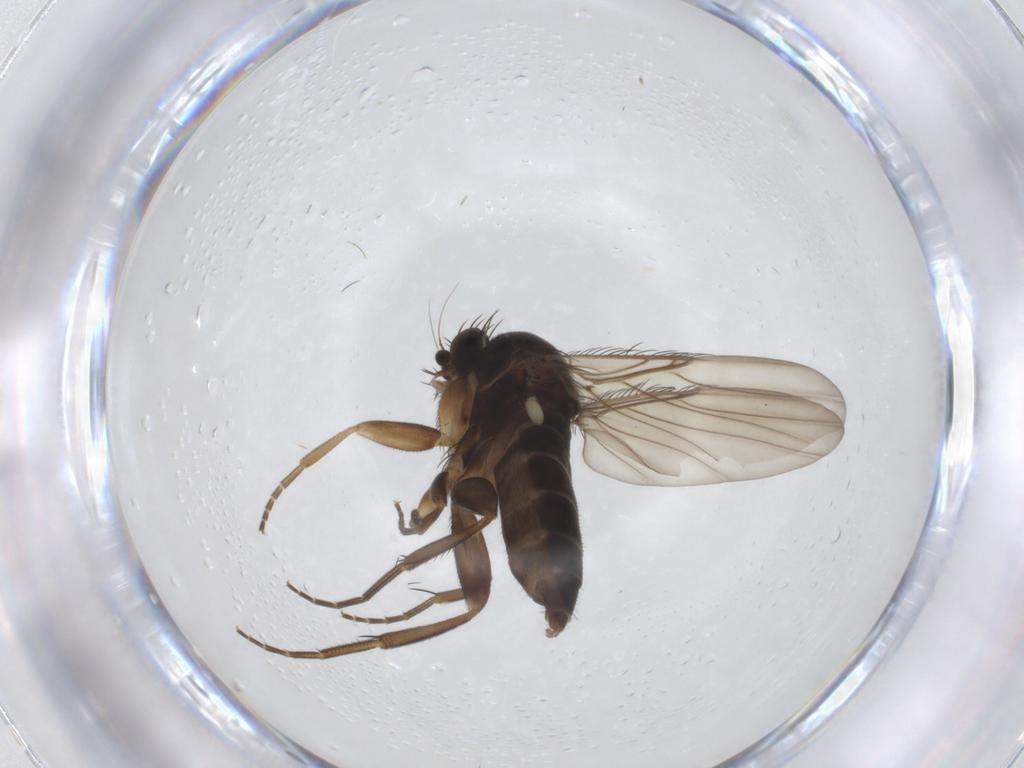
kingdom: Animalia
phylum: Arthropoda
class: Insecta
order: Diptera
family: Phoridae
